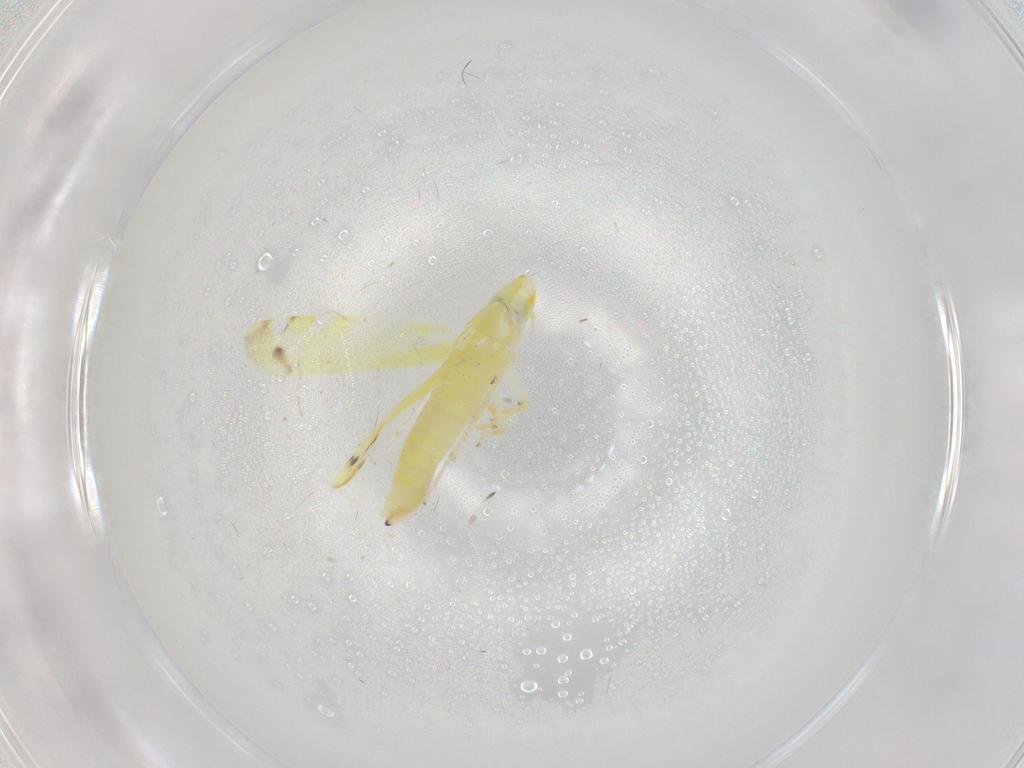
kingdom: Animalia
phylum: Arthropoda
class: Insecta
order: Hemiptera
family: Cicadellidae
